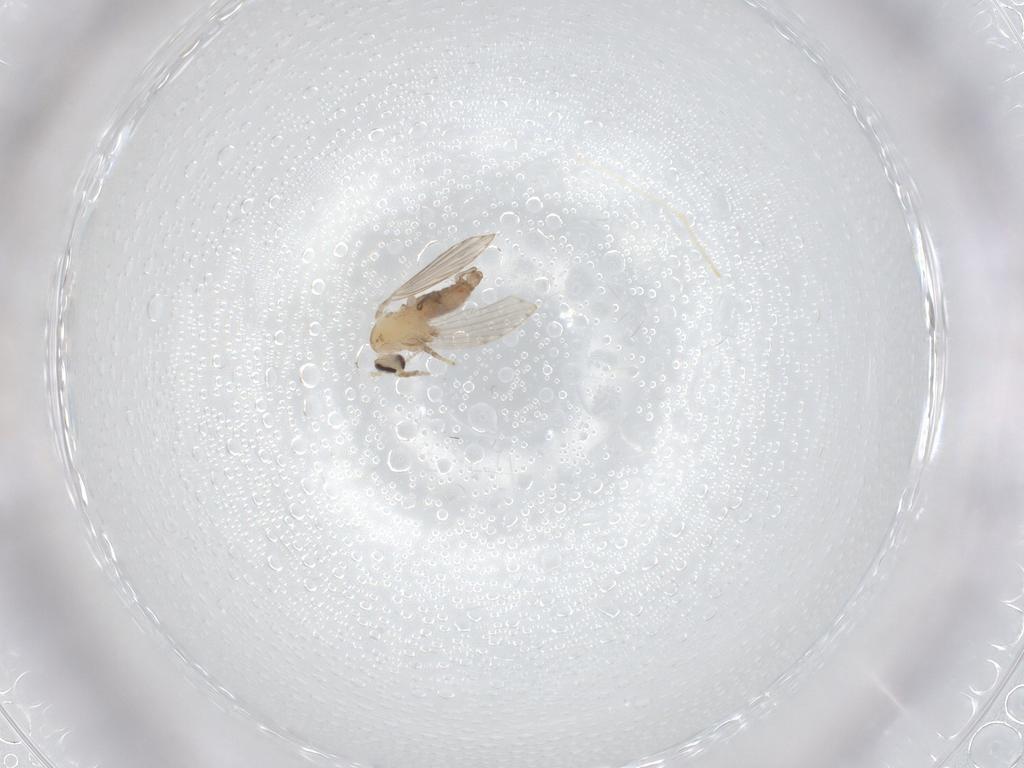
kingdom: Animalia
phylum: Arthropoda
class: Insecta
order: Diptera
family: Psychodidae
